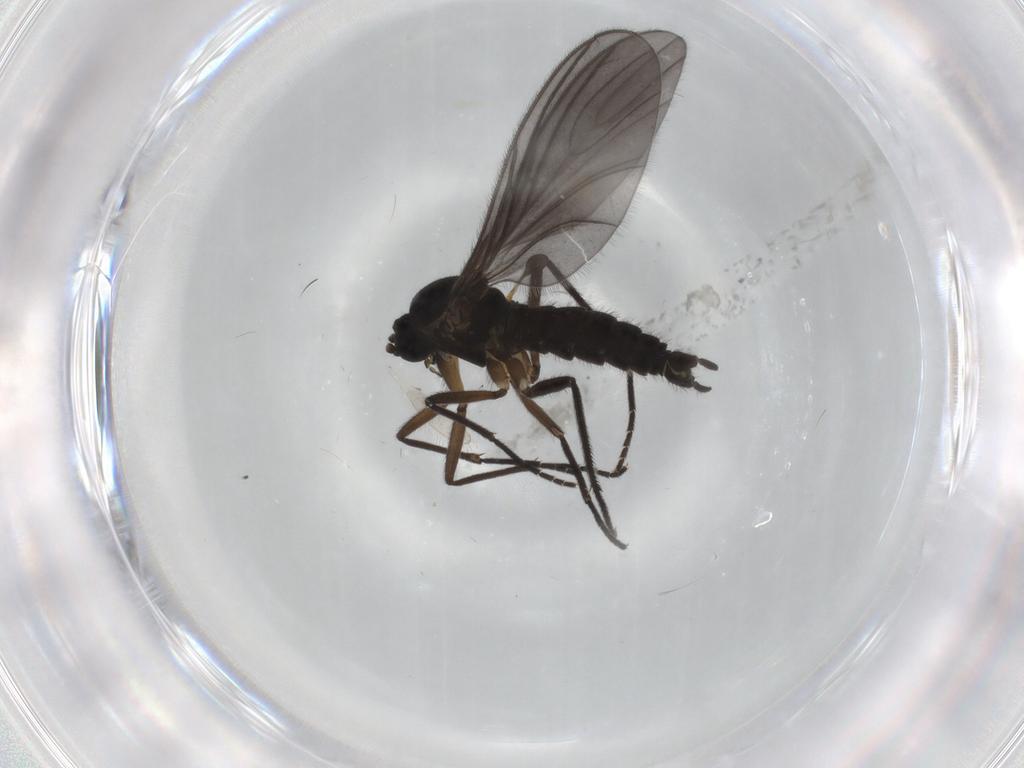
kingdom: Animalia
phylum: Arthropoda
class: Insecta
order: Diptera
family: Sciaridae
